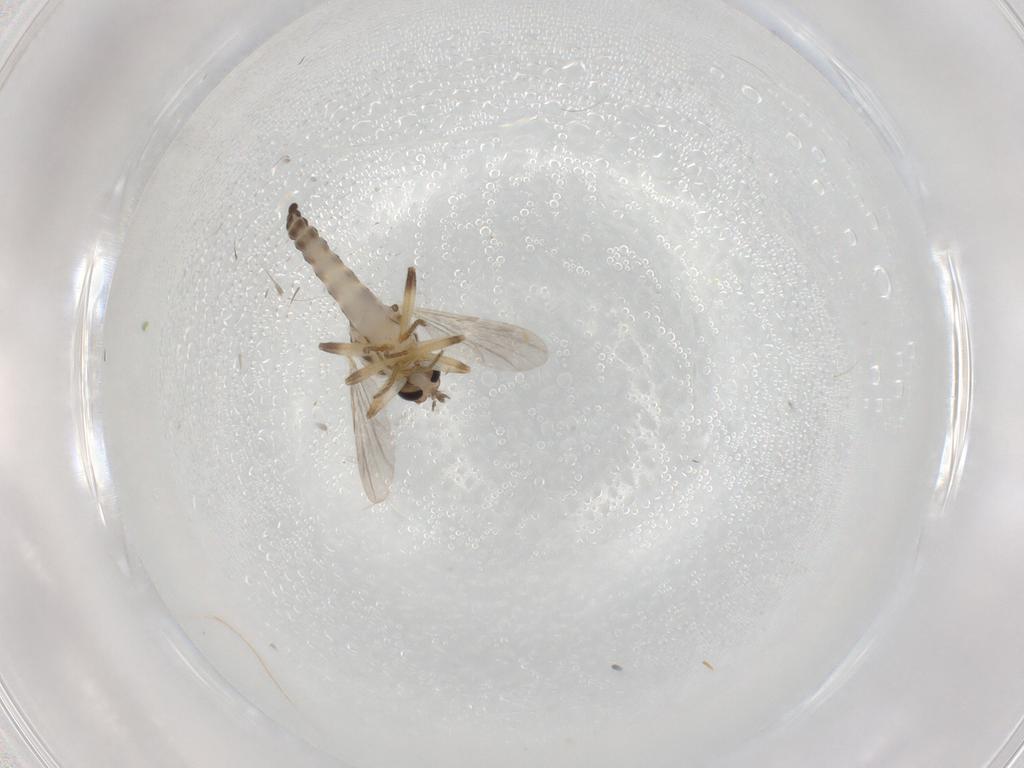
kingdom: Animalia
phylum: Arthropoda
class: Insecta
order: Diptera
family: Ceratopogonidae
